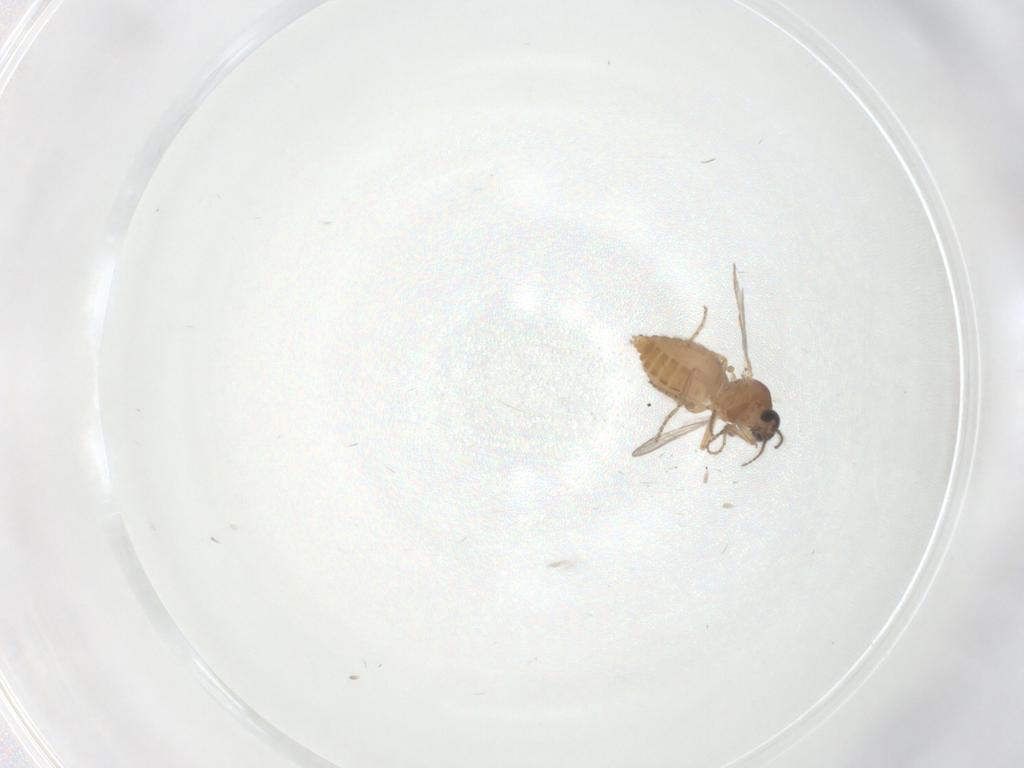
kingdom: Animalia
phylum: Arthropoda
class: Insecta
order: Diptera
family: Ceratopogonidae
